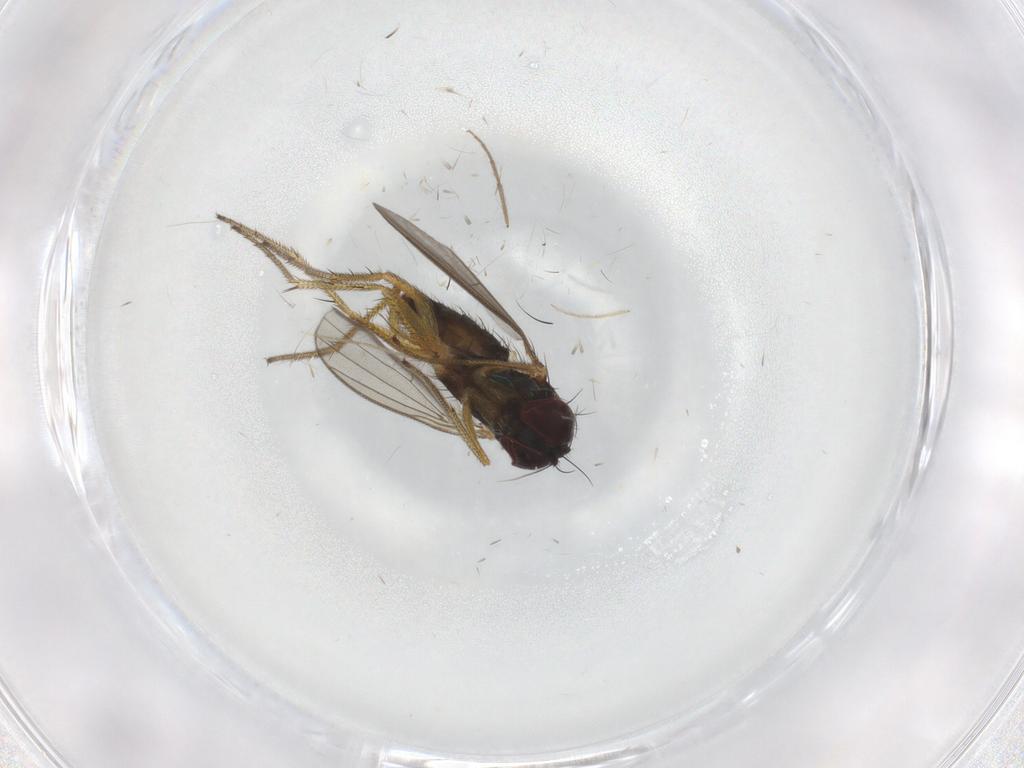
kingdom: Animalia
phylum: Arthropoda
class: Insecta
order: Diptera
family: Dolichopodidae
